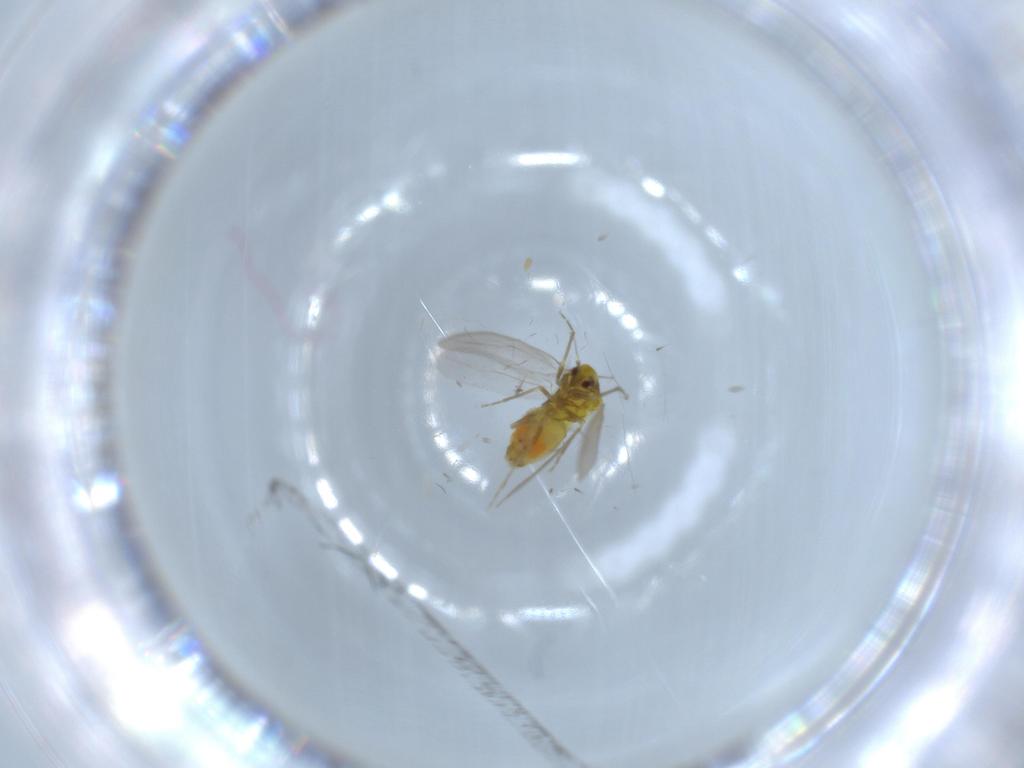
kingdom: Animalia
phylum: Arthropoda
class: Insecta
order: Hemiptera
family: Aleyrodidae
